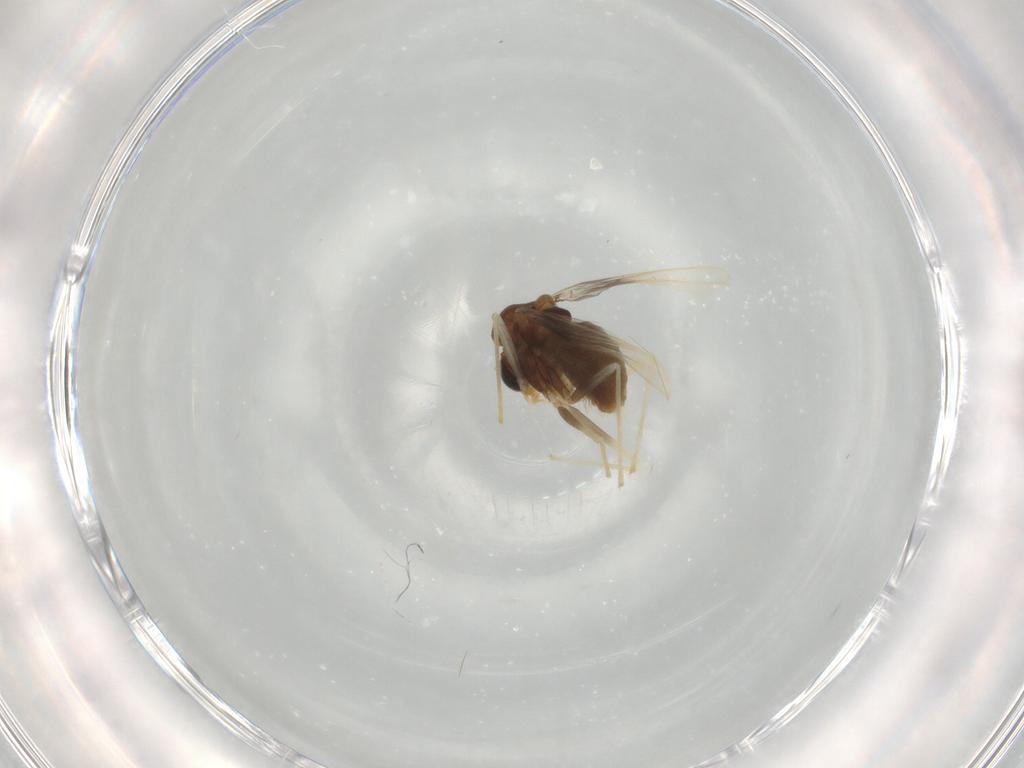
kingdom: Animalia
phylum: Arthropoda
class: Insecta
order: Diptera
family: Chironomidae
